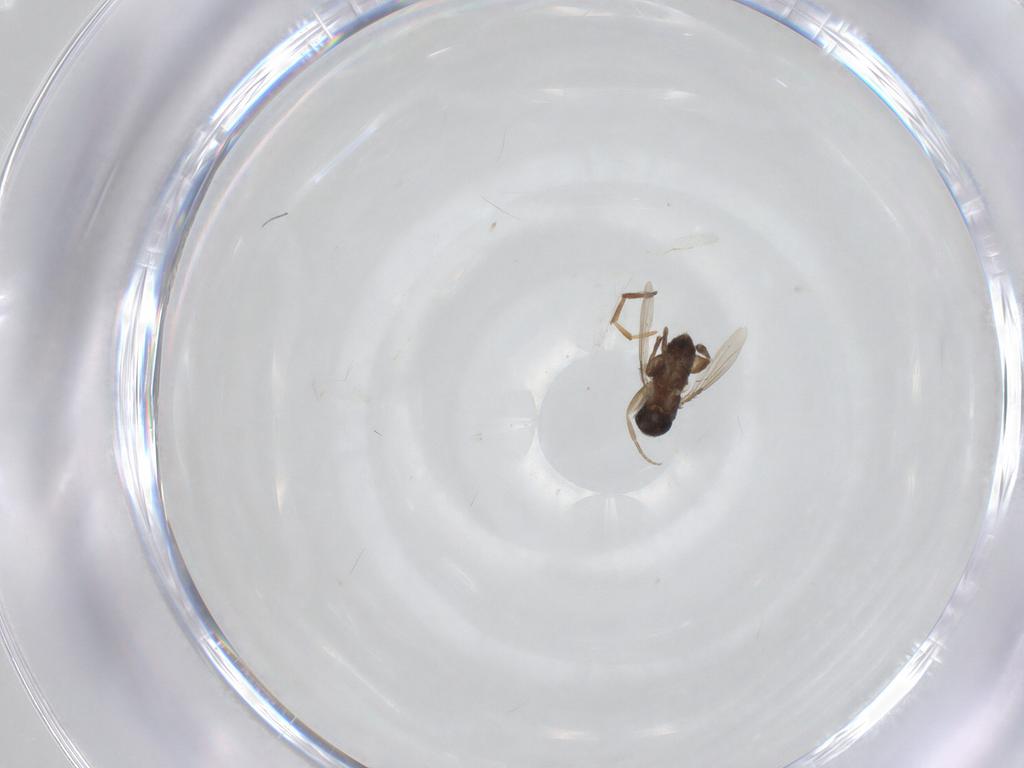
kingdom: Animalia
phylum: Arthropoda
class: Insecta
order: Diptera
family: Phoridae
